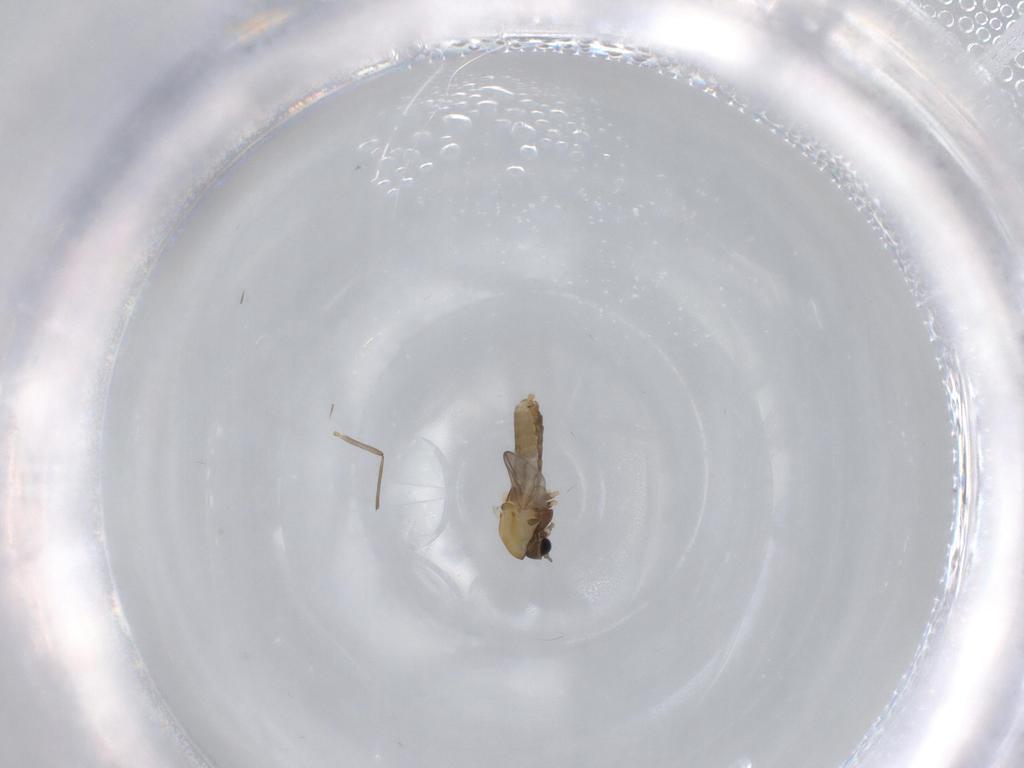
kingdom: Animalia
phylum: Arthropoda
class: Insecta
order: Diptera
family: Chironomidae
